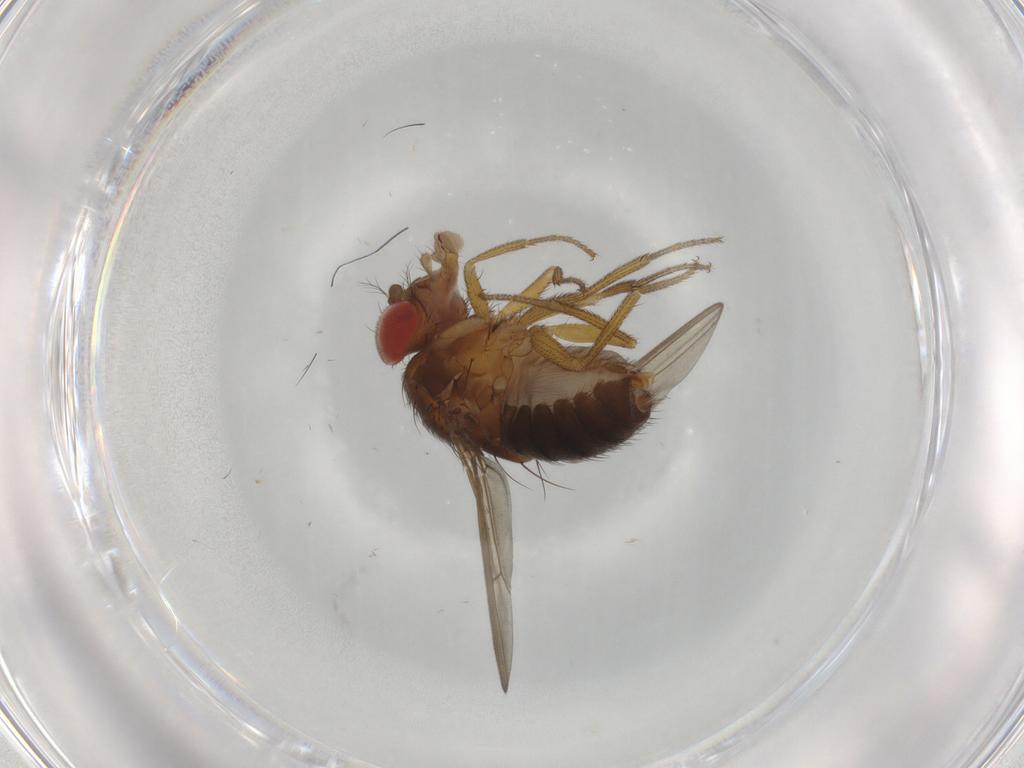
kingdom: Animalia
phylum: Arthropoda
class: Insecta
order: Diptera
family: Drosophilidae
